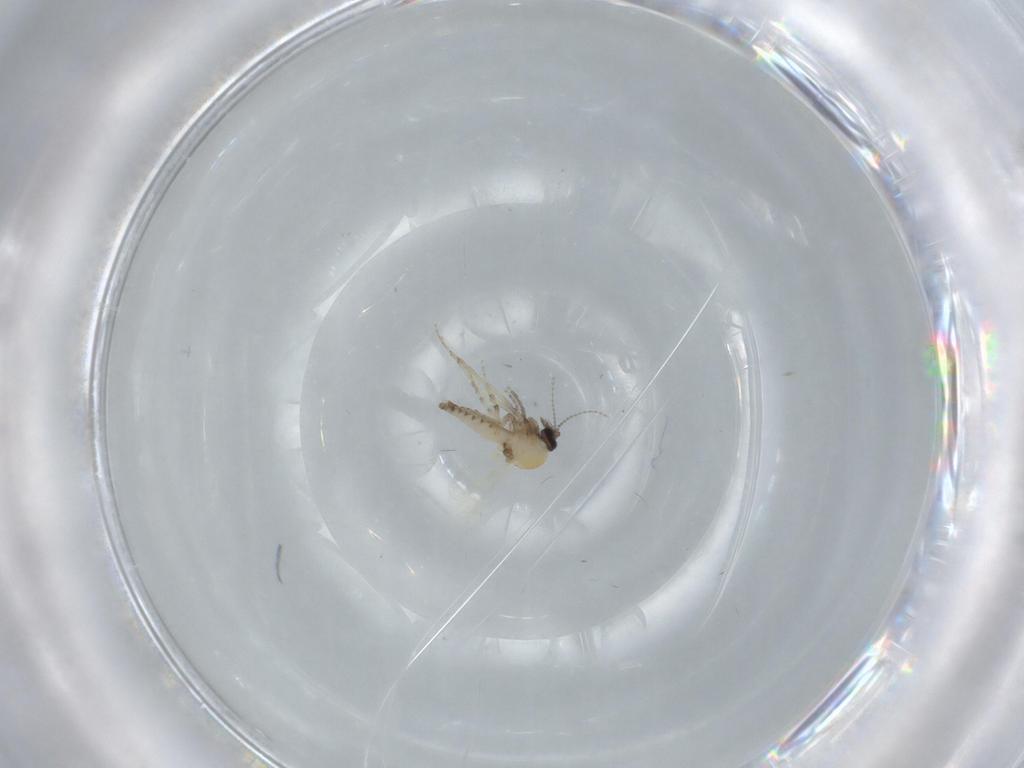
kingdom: Animalia
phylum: Arthropoda
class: Insecta
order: Diptera
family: Ceratopogonidae
